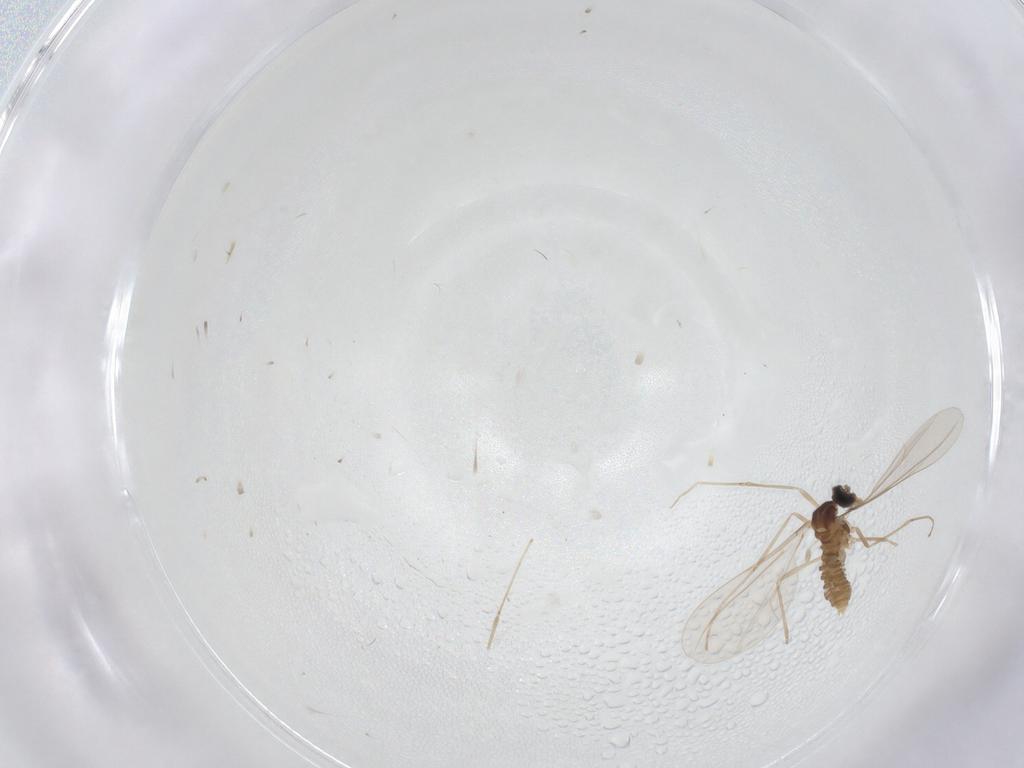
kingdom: Animalia
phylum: Arthropoda
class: Insecta
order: Diptera
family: Cecidomyiidae
